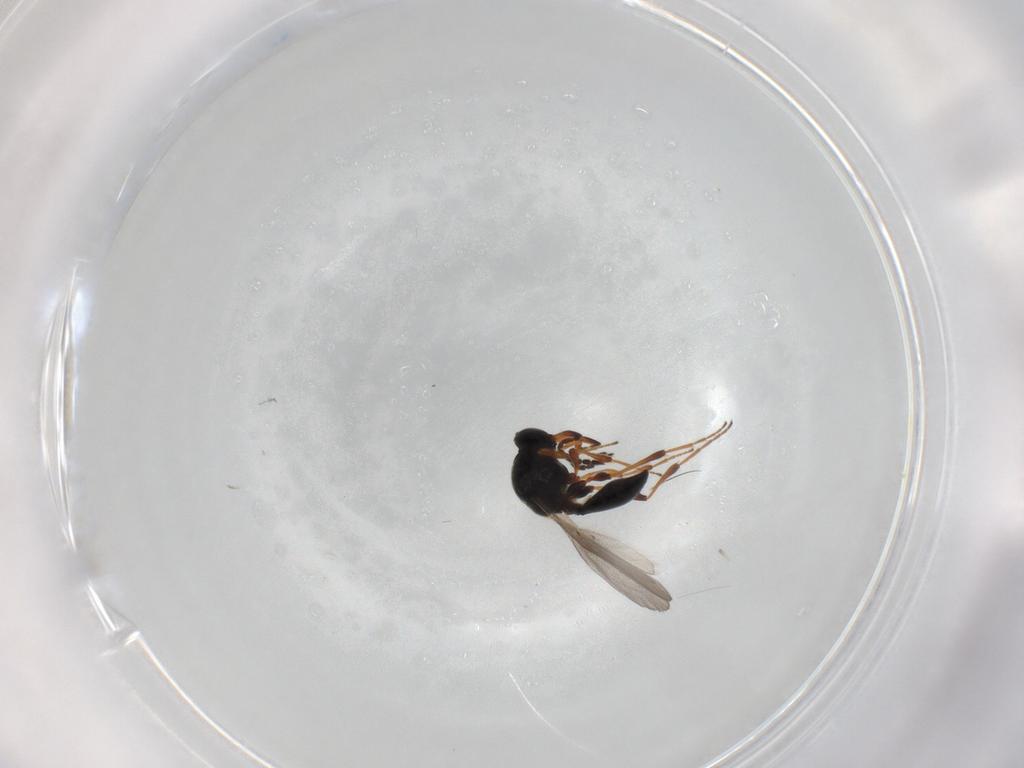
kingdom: Animalia
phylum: Arthropoda
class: Insecta
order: Hymenoptera
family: Platygastridae
